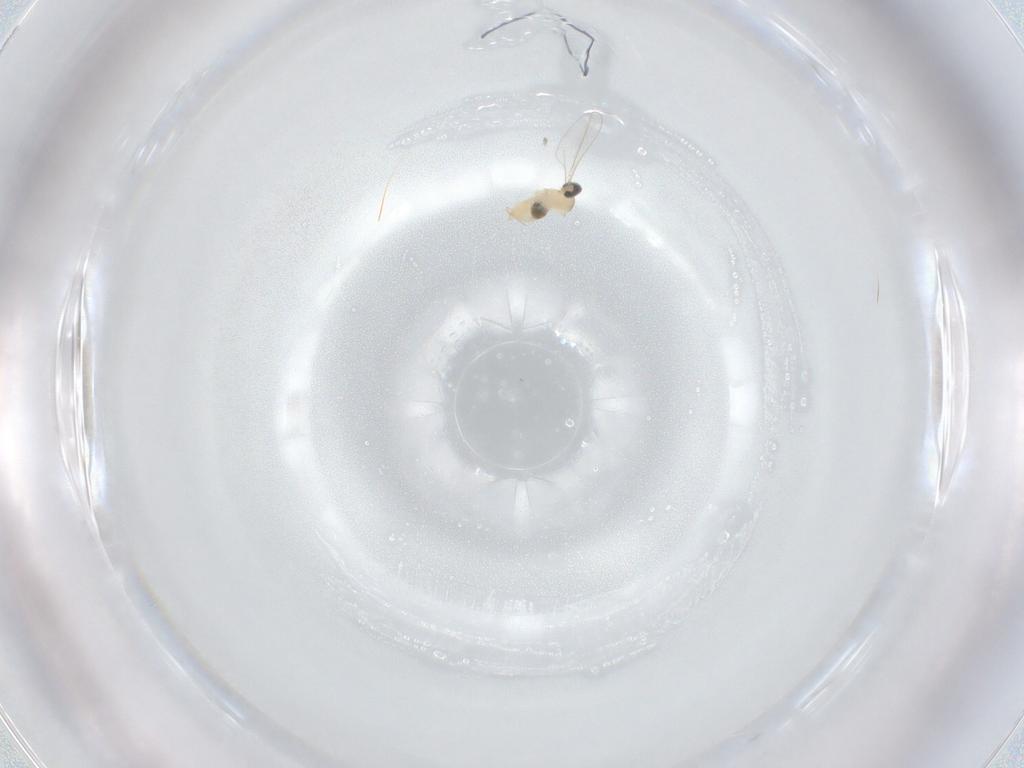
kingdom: Animalia
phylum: Arthropoda
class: Insecta
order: Diptera
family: Cecidomyiidae
